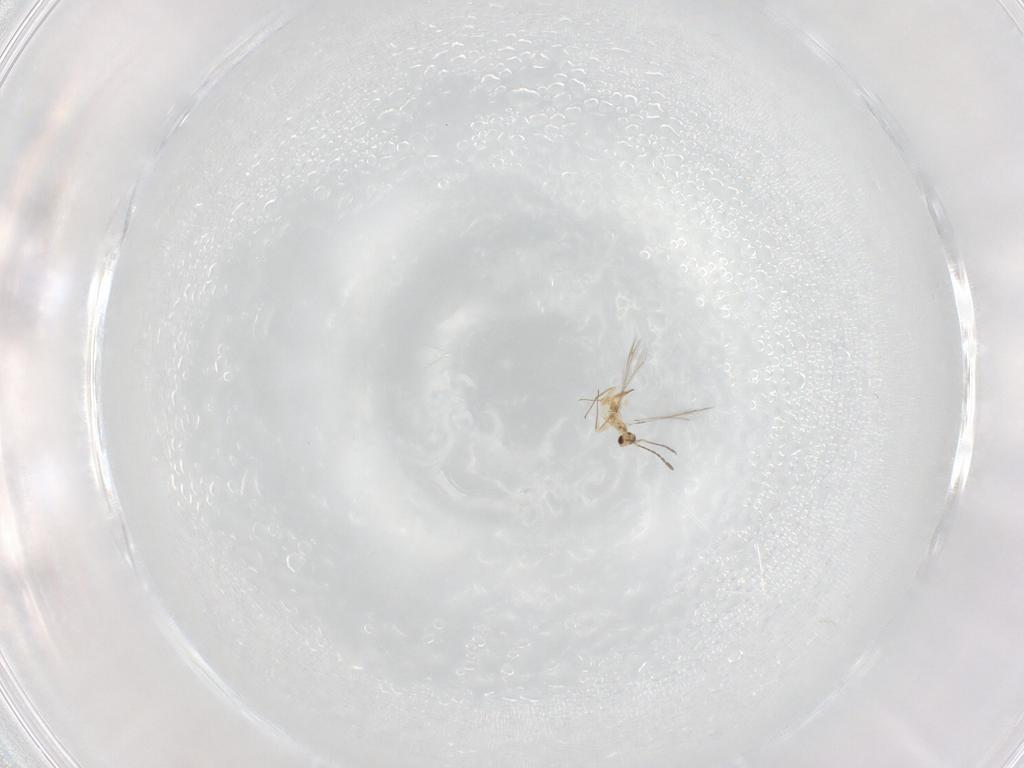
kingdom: Animalia
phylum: Arthropoda
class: Insecta
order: Hymenoptera
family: Mymaridae
